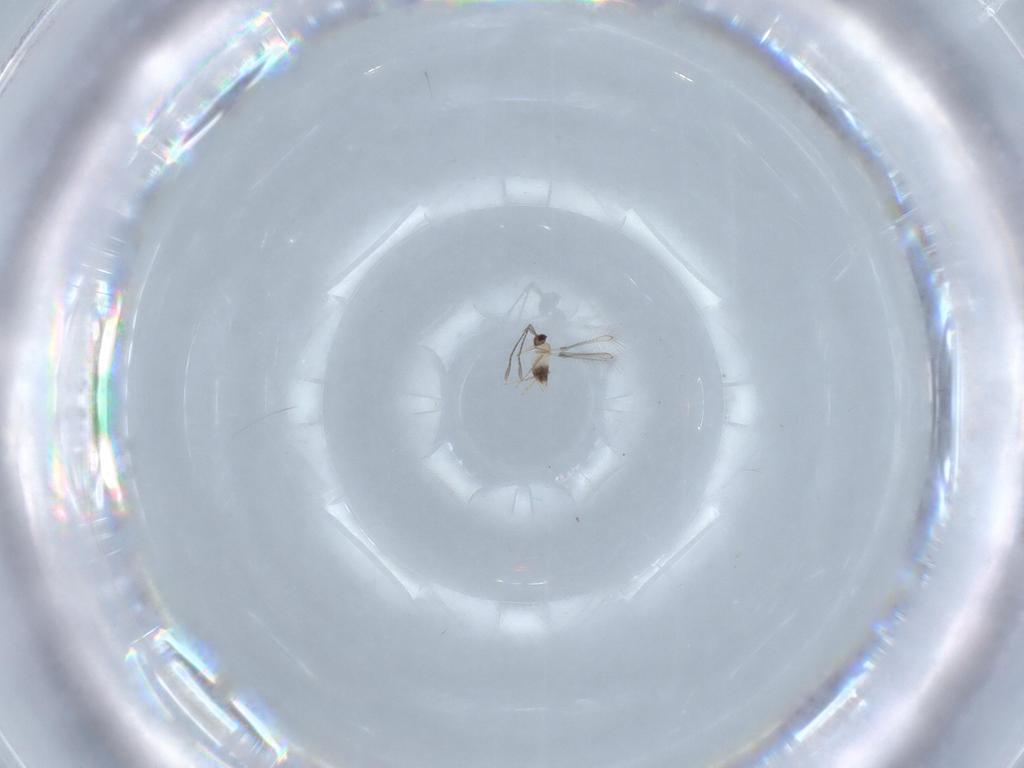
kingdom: Animalia
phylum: Arthropoda
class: Insecta
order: Hymenoptera
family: Mymaridae
